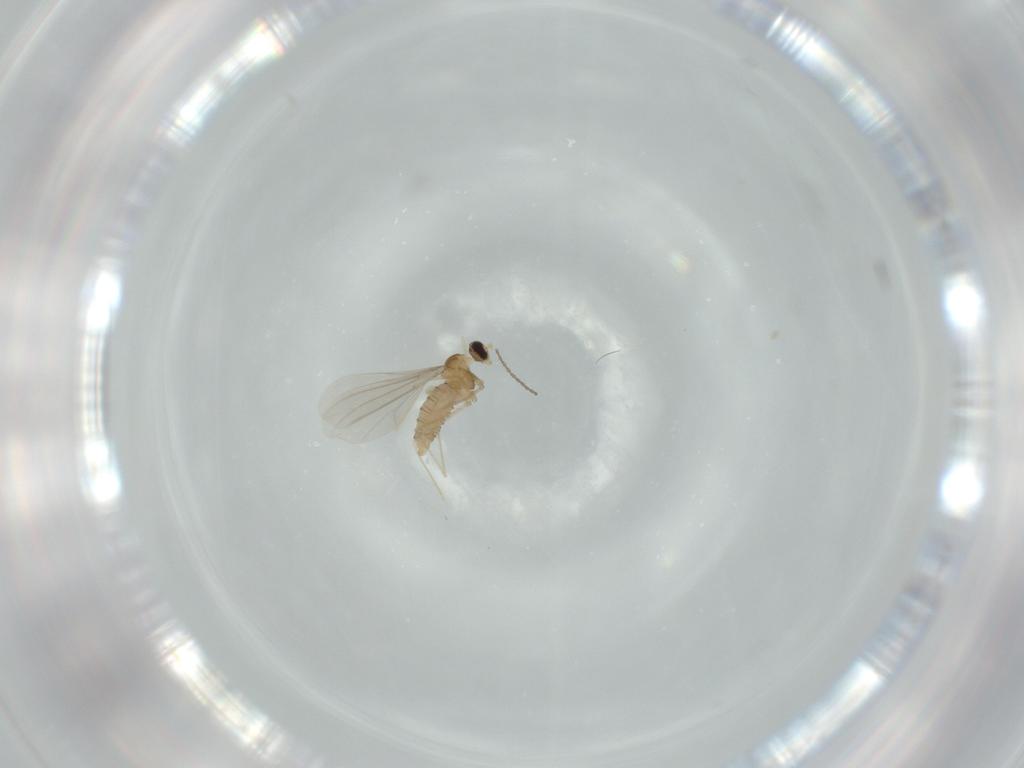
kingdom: Animalia
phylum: Arthropoda
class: Insecta
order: Diptera
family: Cecidomyiidae
